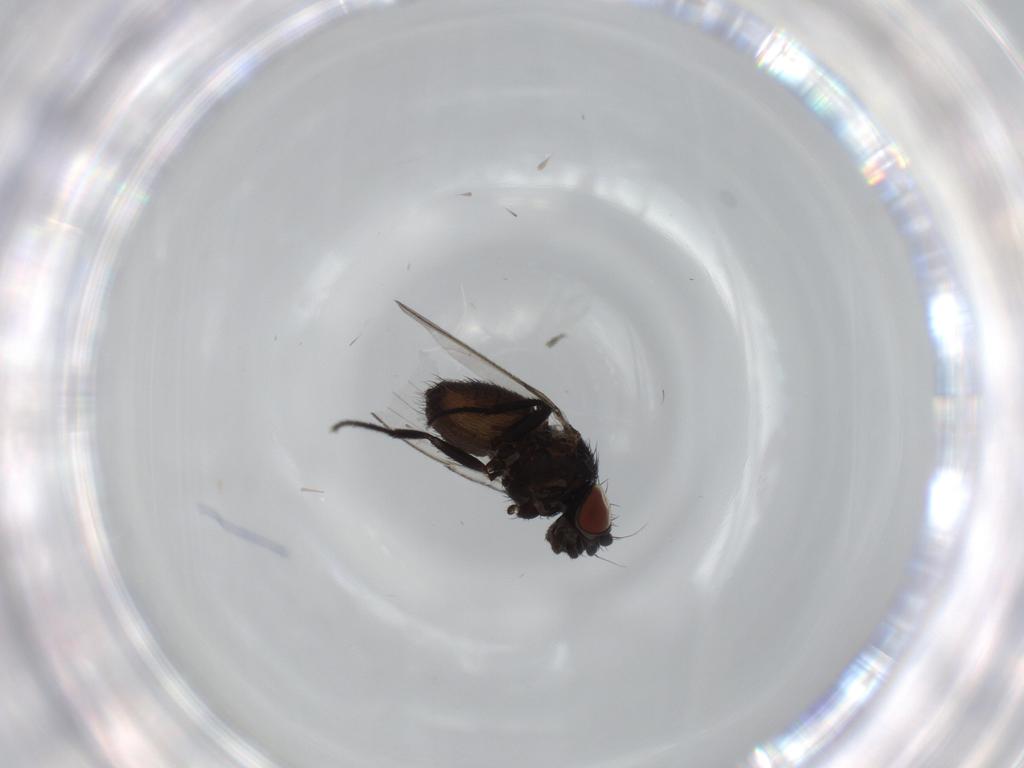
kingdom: Animalia
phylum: Arthropoda
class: Insecta
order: Diptera
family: Milichiidae
